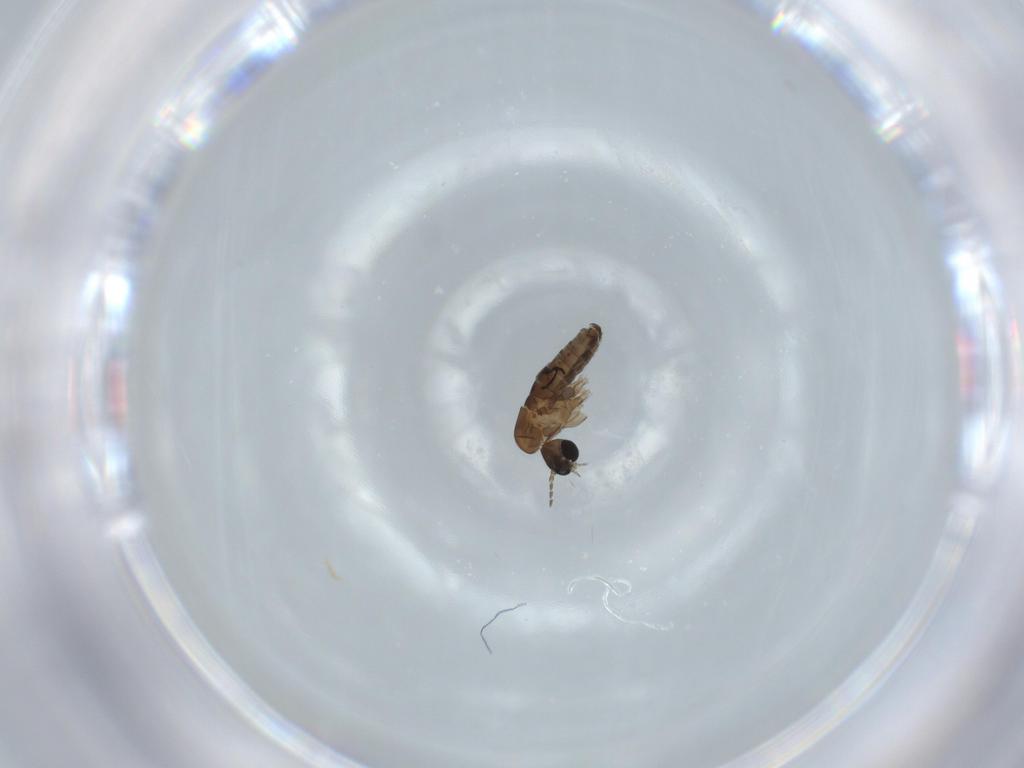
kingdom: Animalia
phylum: Arthropoda
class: Insecta
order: Diptera
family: Psychodidae
